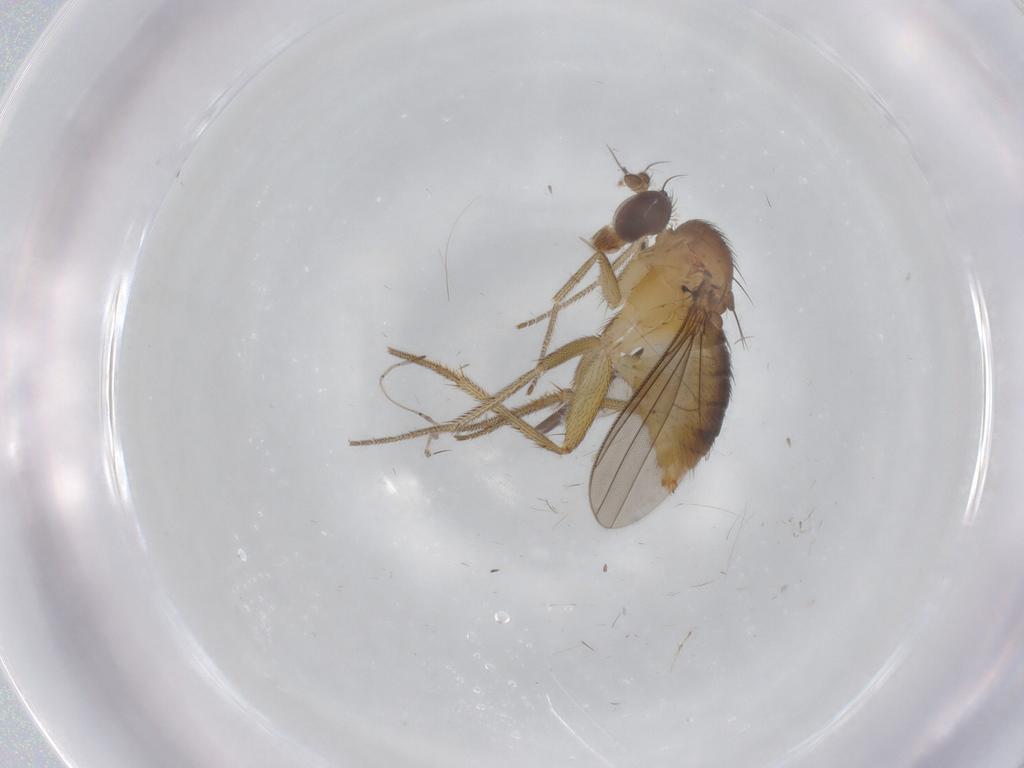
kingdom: Animalia
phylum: Arthropoda
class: Insecta
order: Diptera
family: Dolichopodidae
